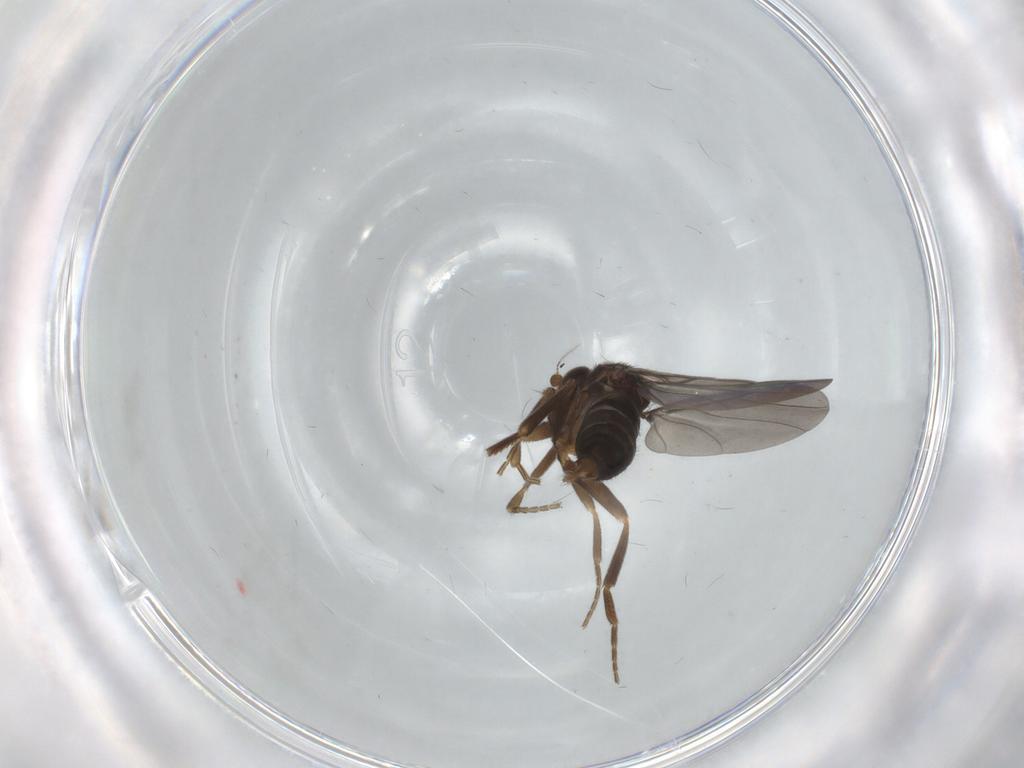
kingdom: Animalia
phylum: Arthropoda
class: Insecta
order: Diptera
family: Phoridae
